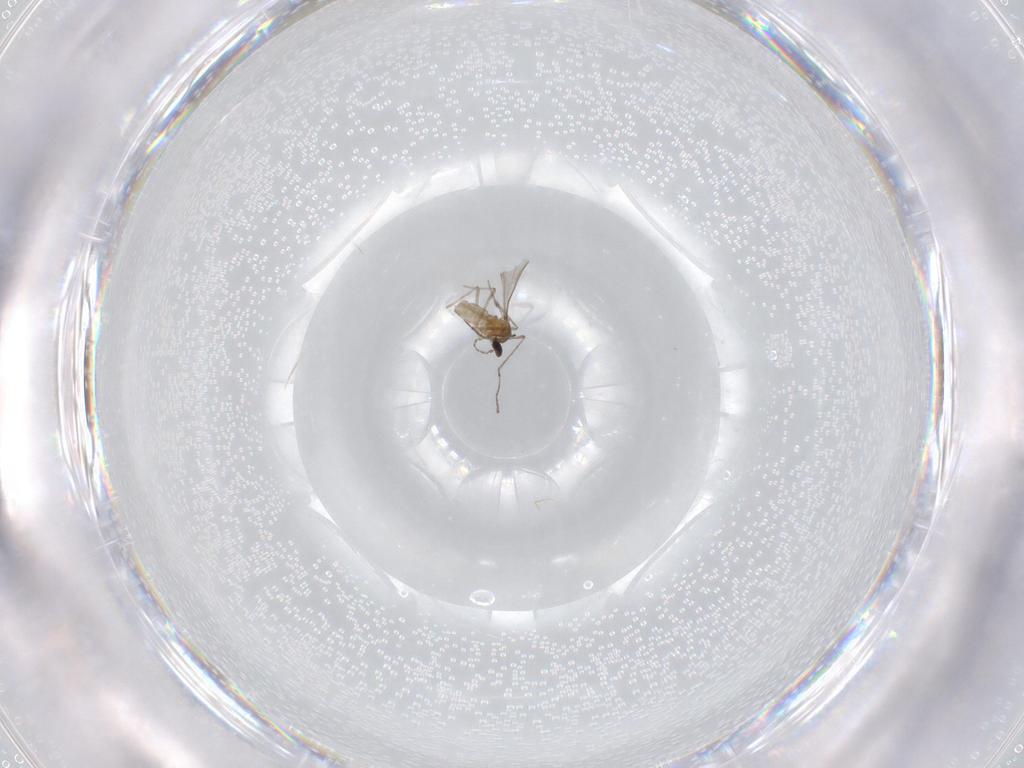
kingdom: Animalia
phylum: Arthropoda
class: Insecta
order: Diptera
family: Cecidomyiidae
